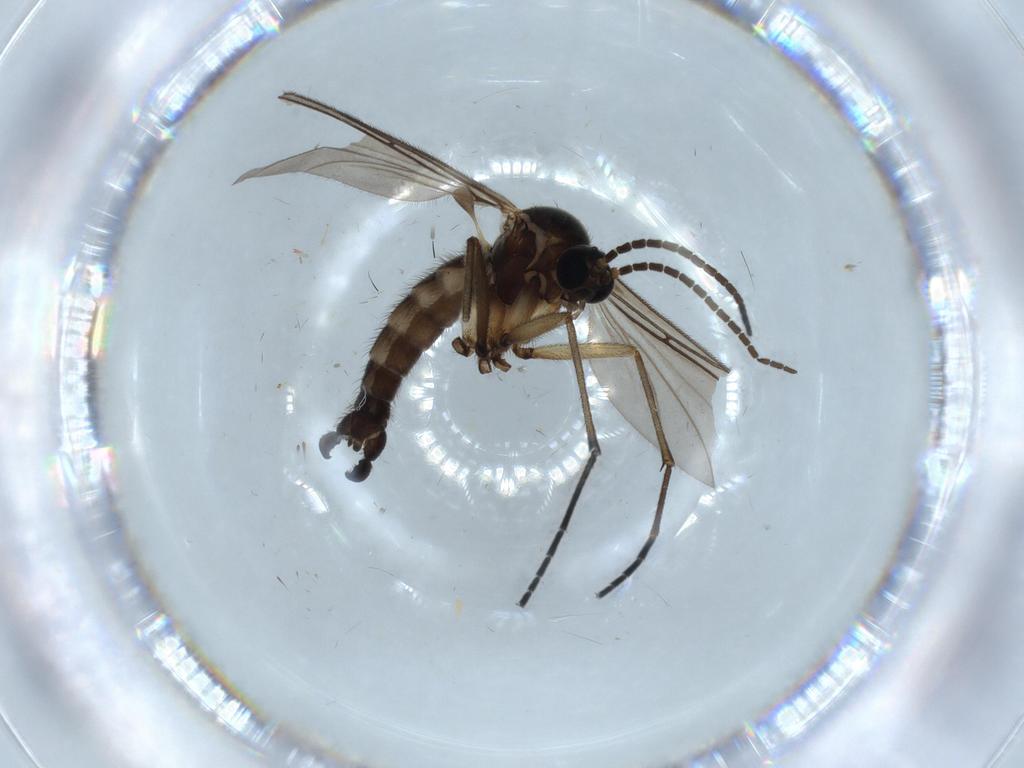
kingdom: Animalia
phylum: Arthropoda
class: Insecta
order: Diptera
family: Sciaridae
